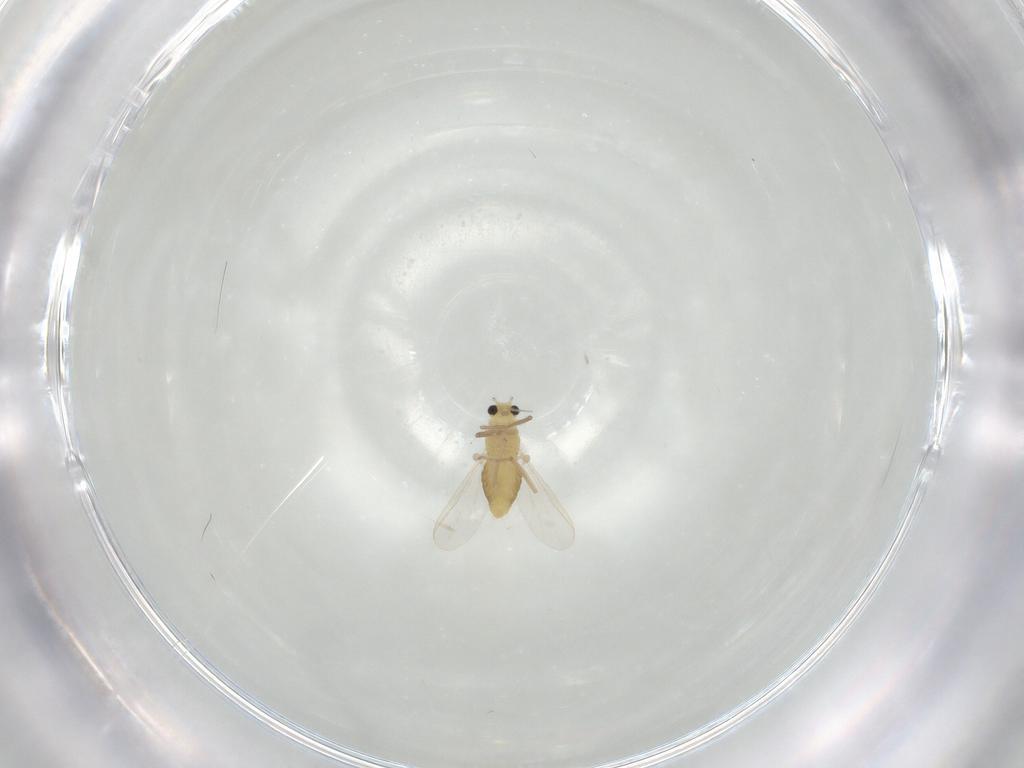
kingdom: Animalia
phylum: Arthropoda
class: Insecta
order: Diptera
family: Chironomidae
